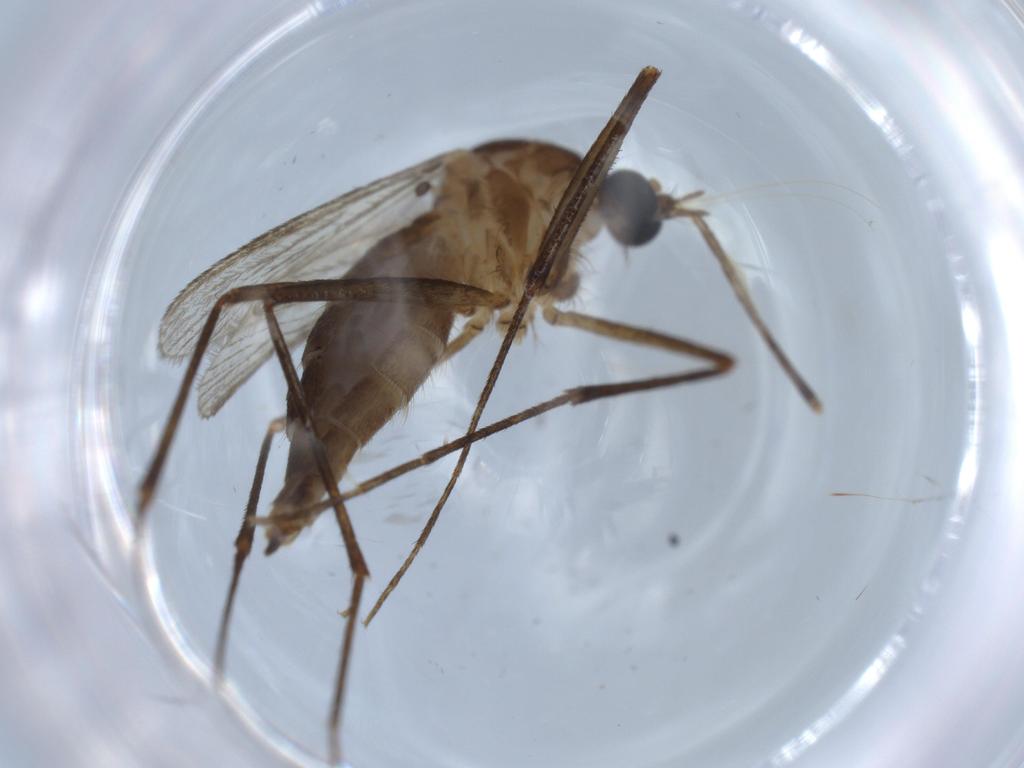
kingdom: Animalia
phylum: Arthropoda
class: Insecta
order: Diptera
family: Culicidae
